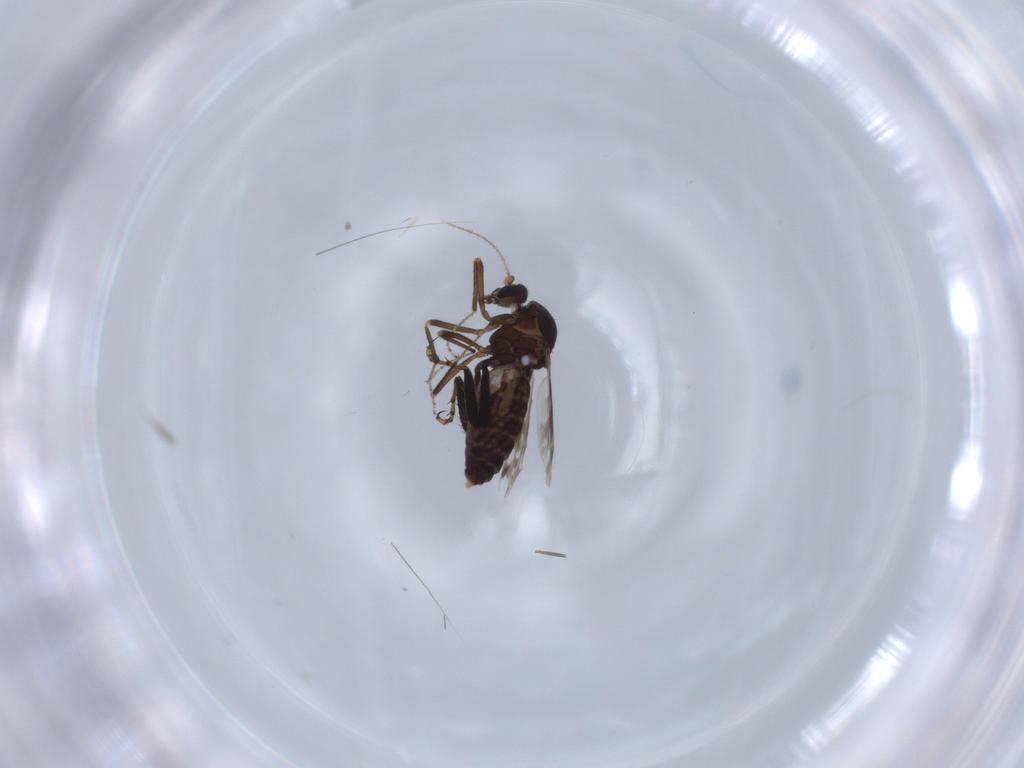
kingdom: Animalia
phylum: Arthropoda
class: Insecta
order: Diptera
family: Ceratopogonidae
